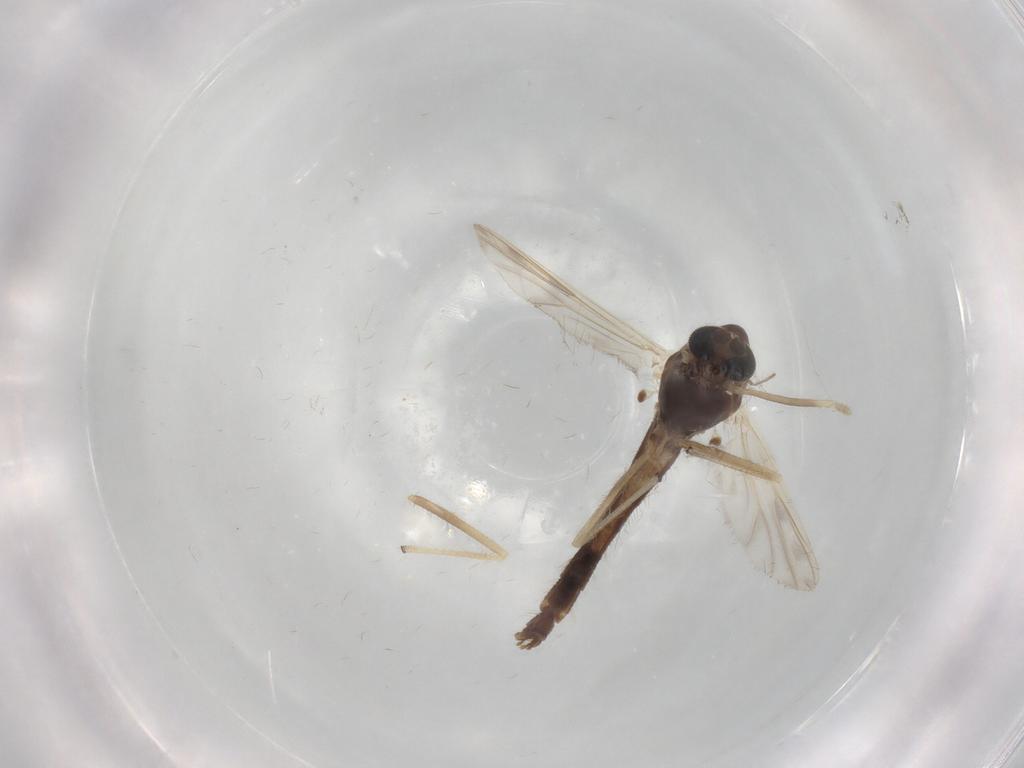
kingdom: Animalia
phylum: Arthropoda
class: Insecta
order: Diptera
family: Chironomidae
